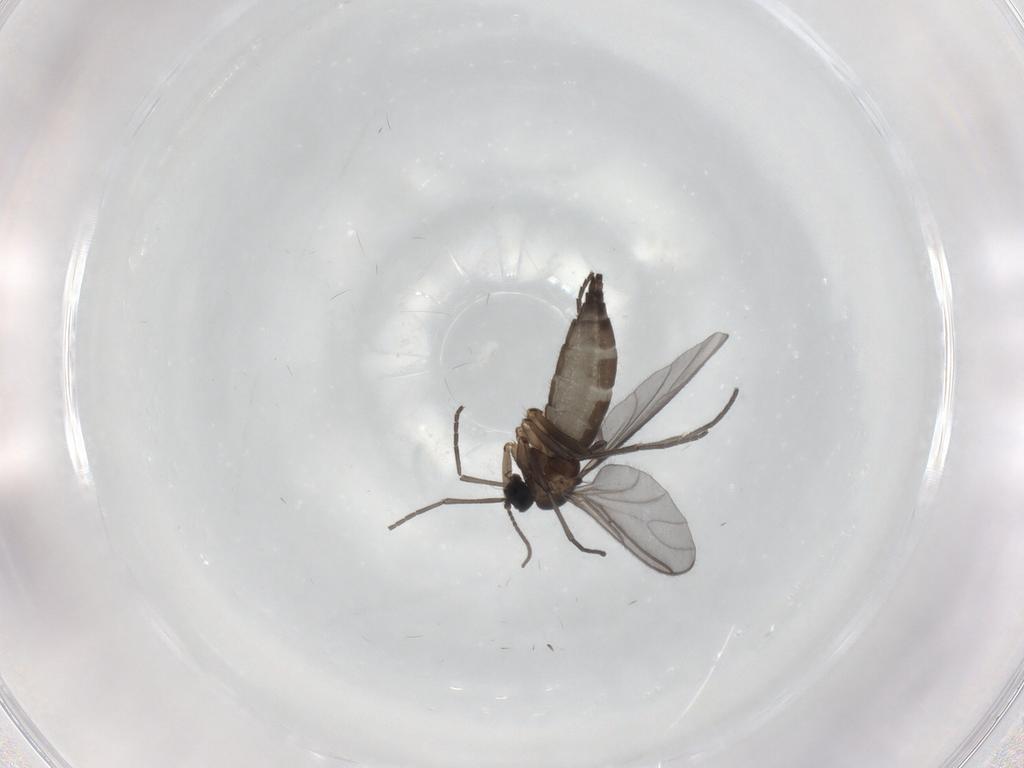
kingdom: Animalia
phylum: Arthropoda
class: Insecta
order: Diptera
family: Sciaridae
